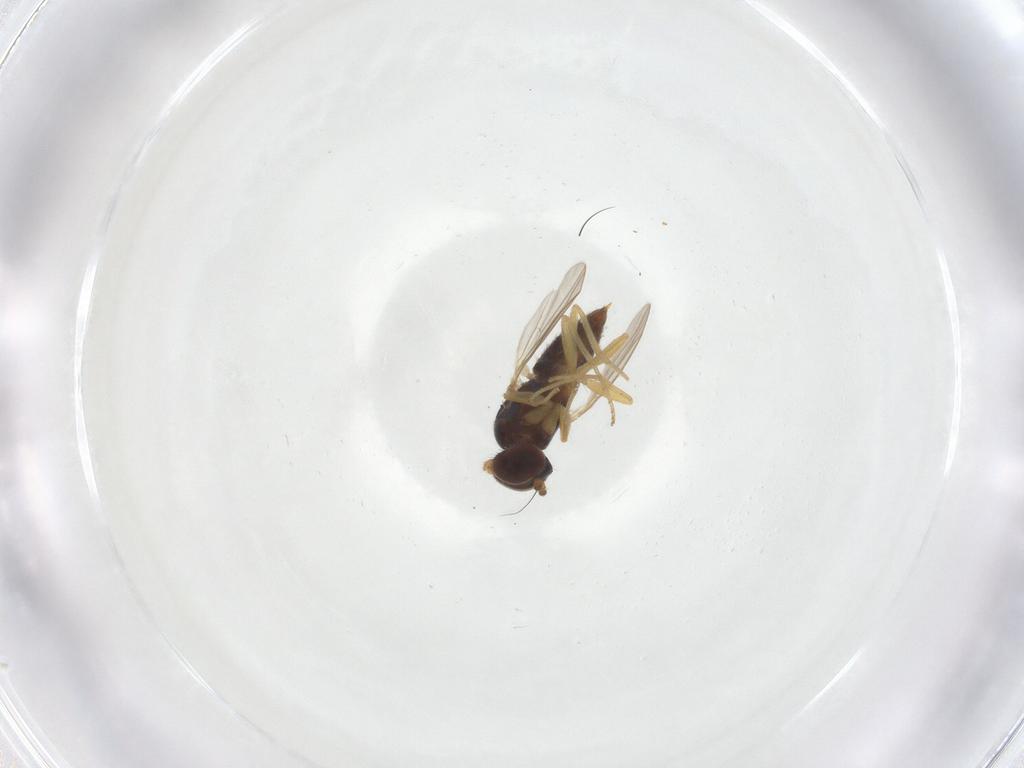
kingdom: Animalia
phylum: Arthropoda
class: Insecta
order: Diptera
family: Dolichopodidae
